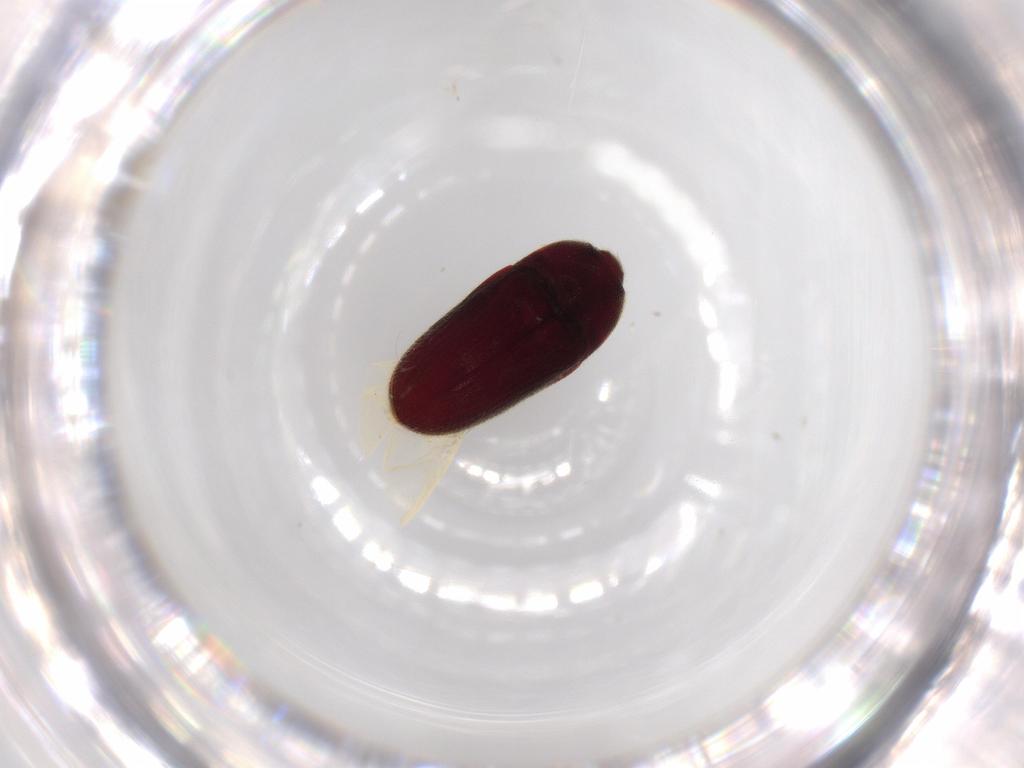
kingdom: Animalia
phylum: Arthropoda
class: Insecta
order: Coleoptera
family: Throscidae
